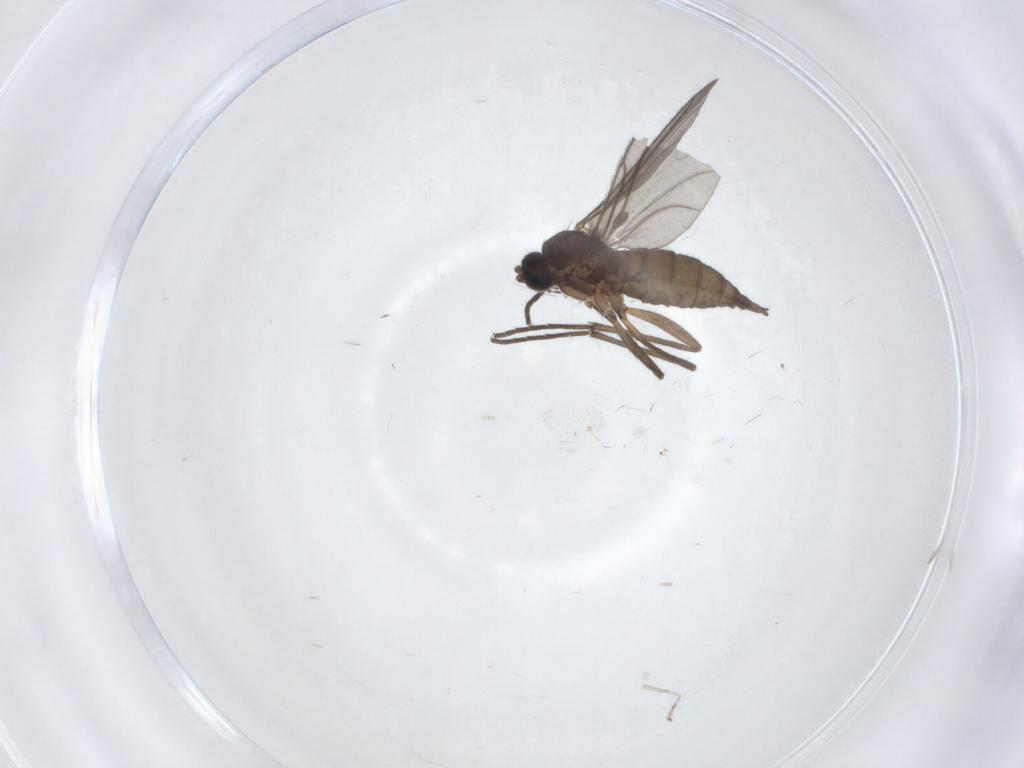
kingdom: Animalia
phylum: Arthropoda
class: Insecta
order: Diptera
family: Cecidomyiidae
